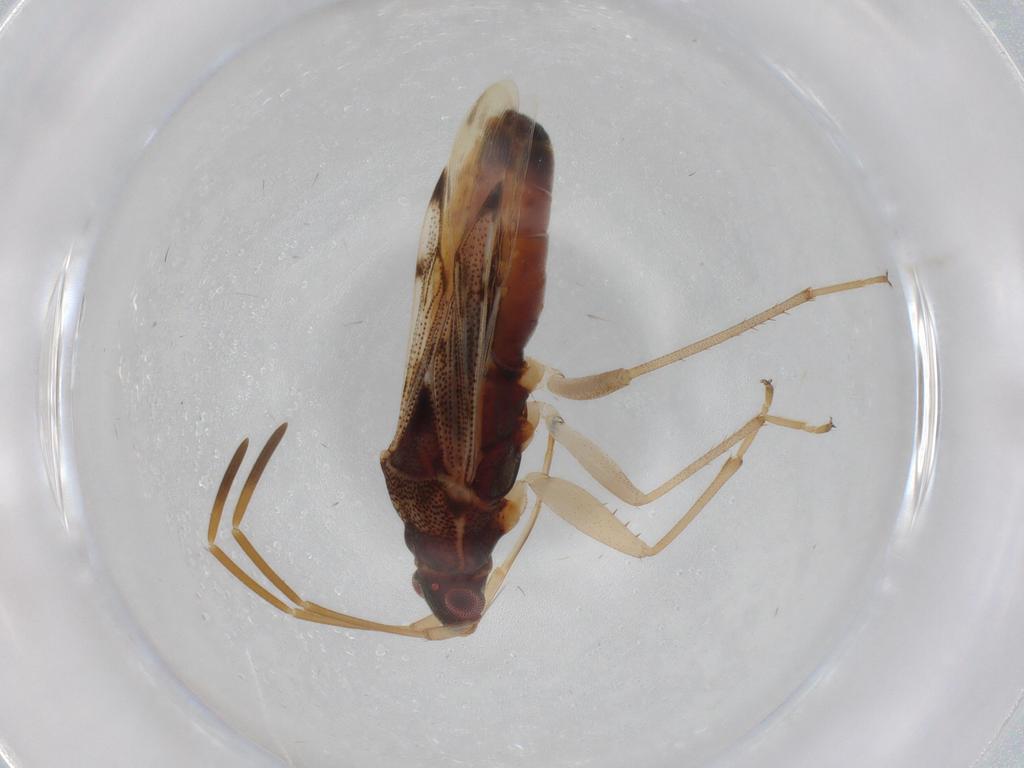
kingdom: Animalia
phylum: Arthropoda
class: Insecta
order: Hemiptera
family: Rhyparochromidae
